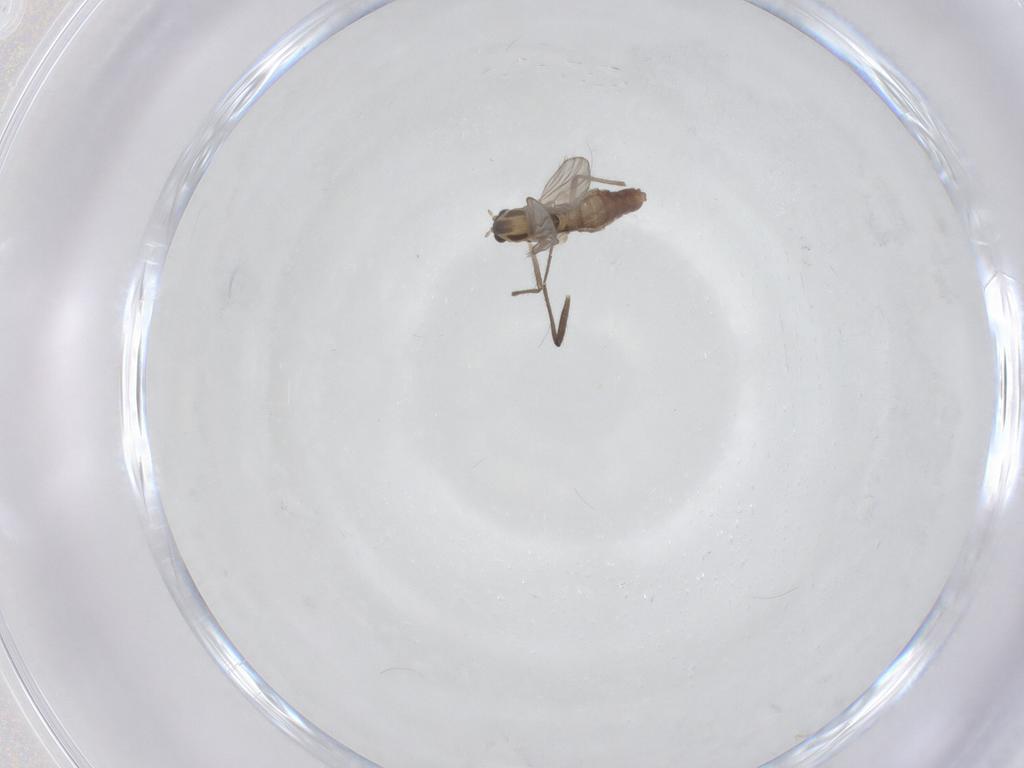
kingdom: Animalia
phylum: Arthropoda
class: Insecta
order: Diptera
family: Chironomidae
